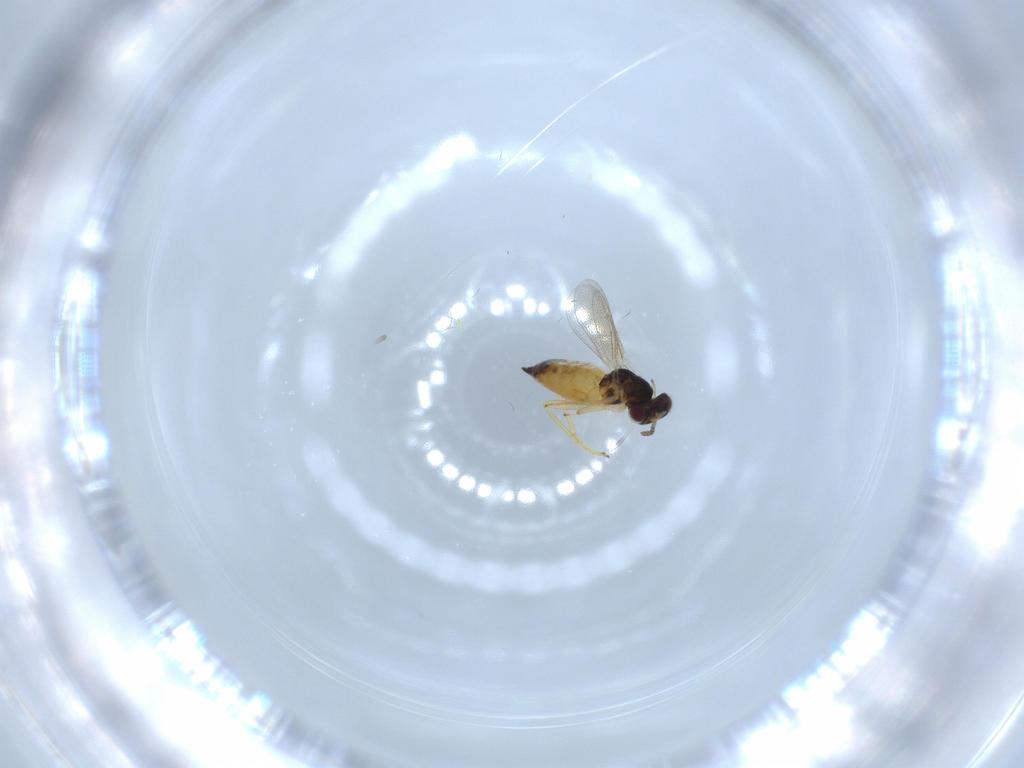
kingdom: Animalia
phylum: Arthropoda
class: Insecta
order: Hymenoptera
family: Eulophidae
